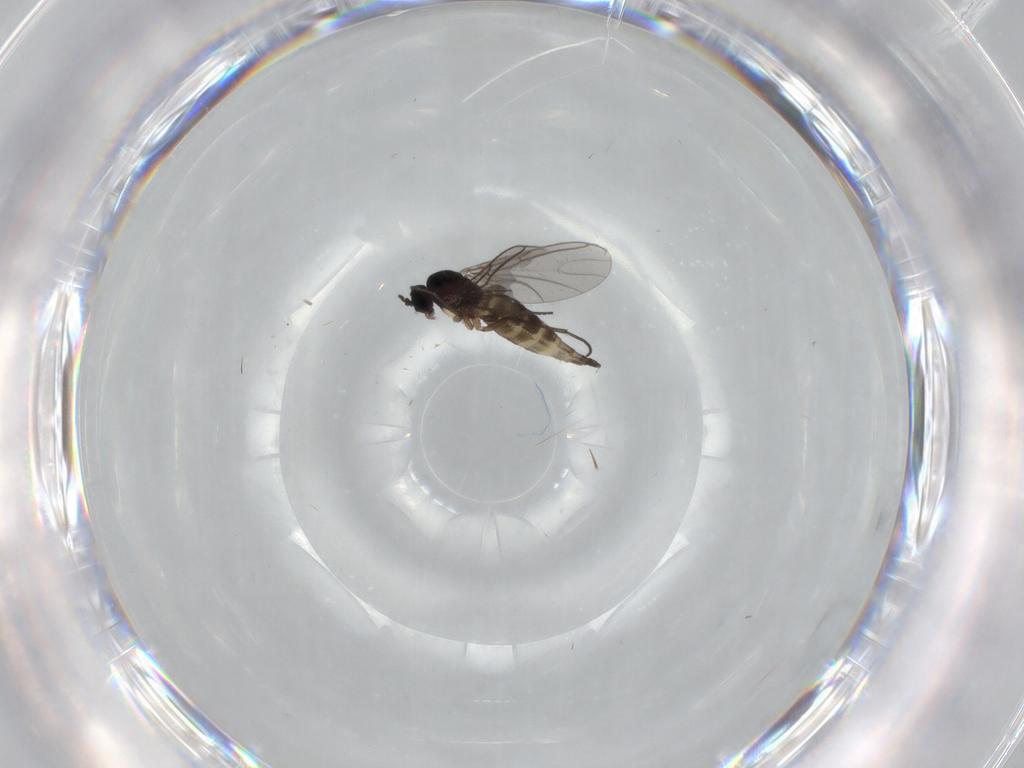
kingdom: Animalia
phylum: Arthropoda
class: Insecta
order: Diptera
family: Sciaridae
